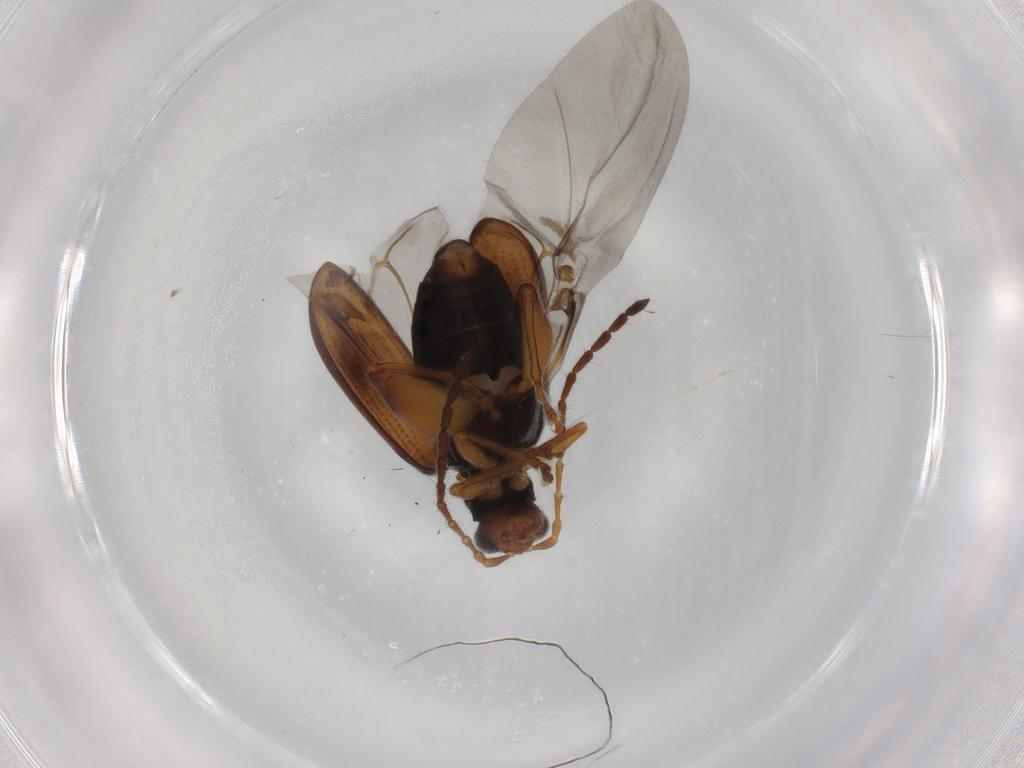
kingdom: Animalia
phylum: Arthropoda
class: Insecta
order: Coleoptera
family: Chrysomelidae
